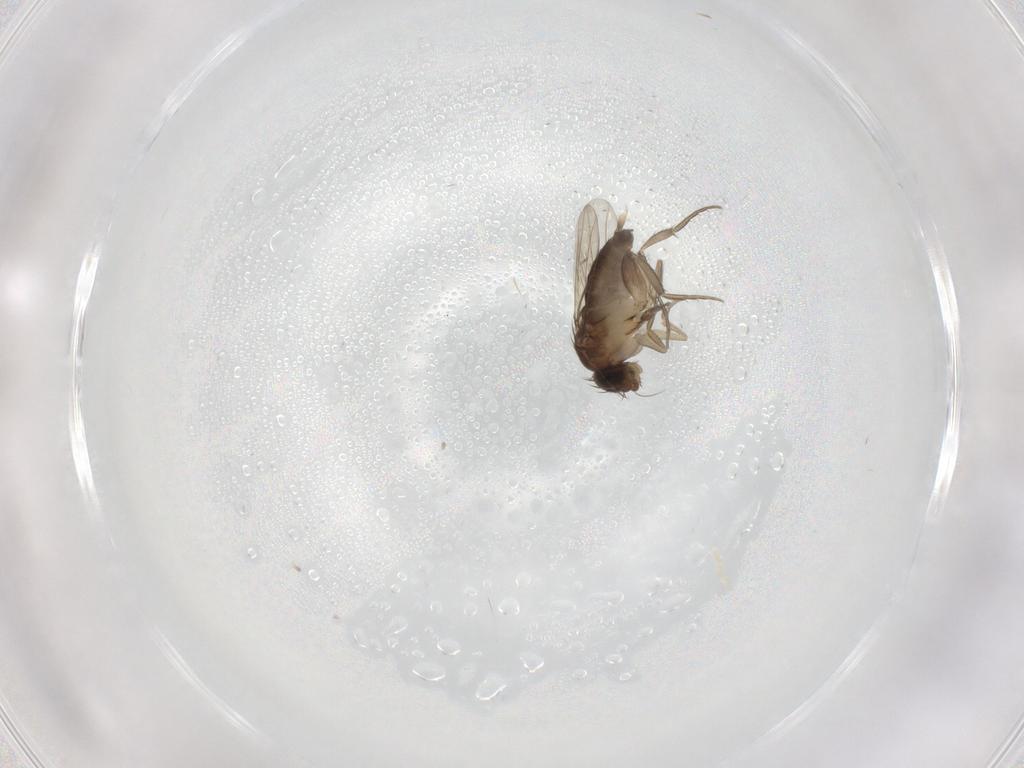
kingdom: Animalia
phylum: Arthropoda
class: Insecta
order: Diptera
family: Phoridae
